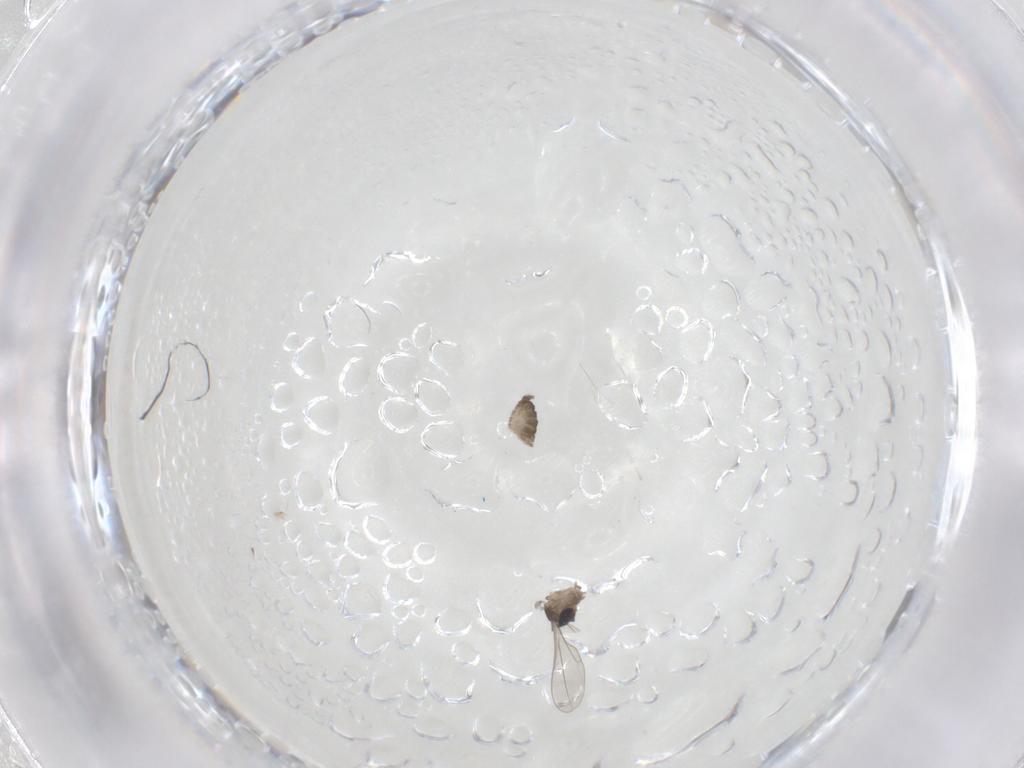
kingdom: Animalia
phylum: Arthropoda
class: Insecta
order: Diptera
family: Cecidomyiidae
